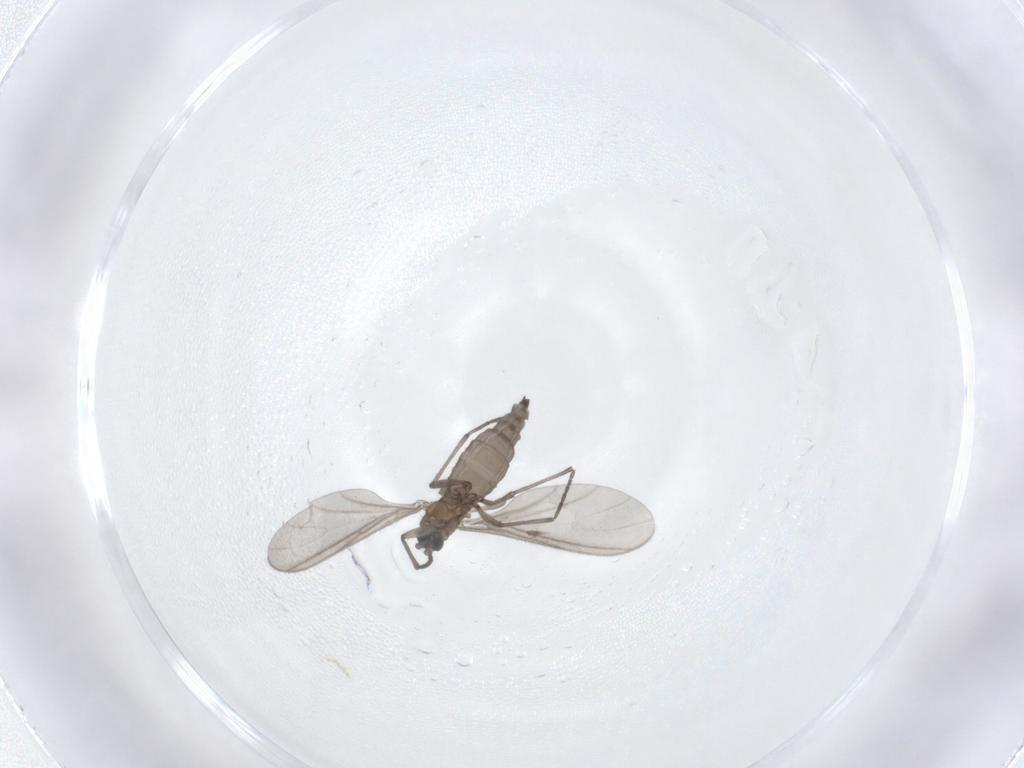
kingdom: Animalia
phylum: Arthropoda
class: Insecta
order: Diptera
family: Sciaridae
